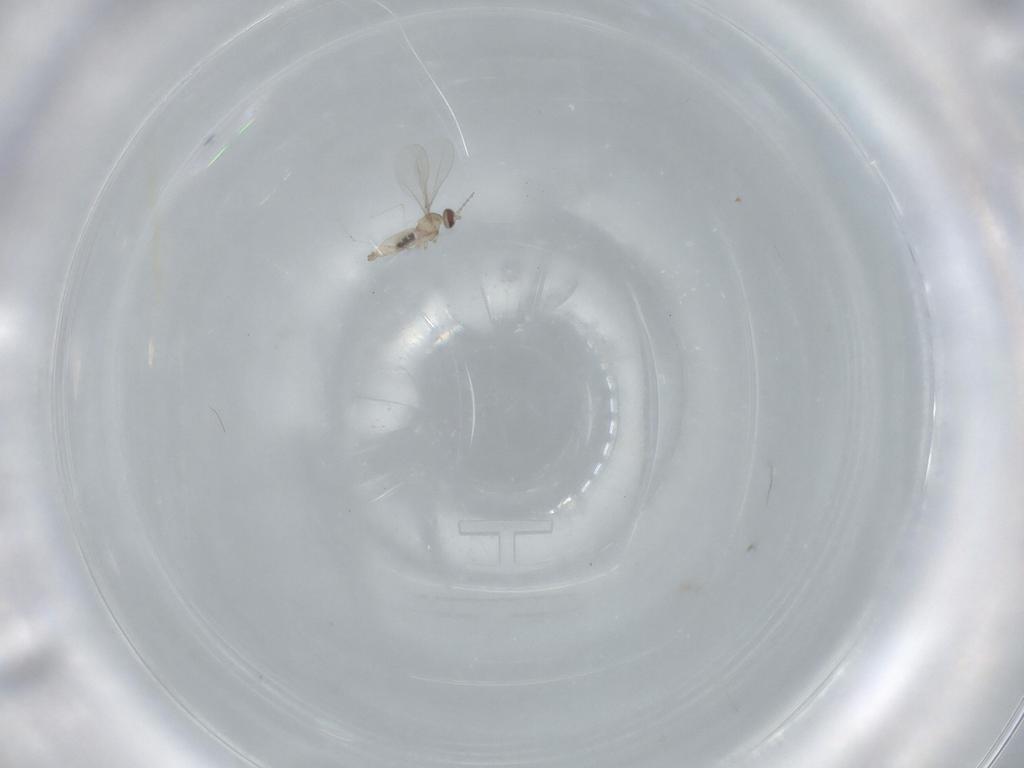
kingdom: Animalia
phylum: Arthropoda
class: Insecta
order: Diptera
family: Cecidomyiidae
